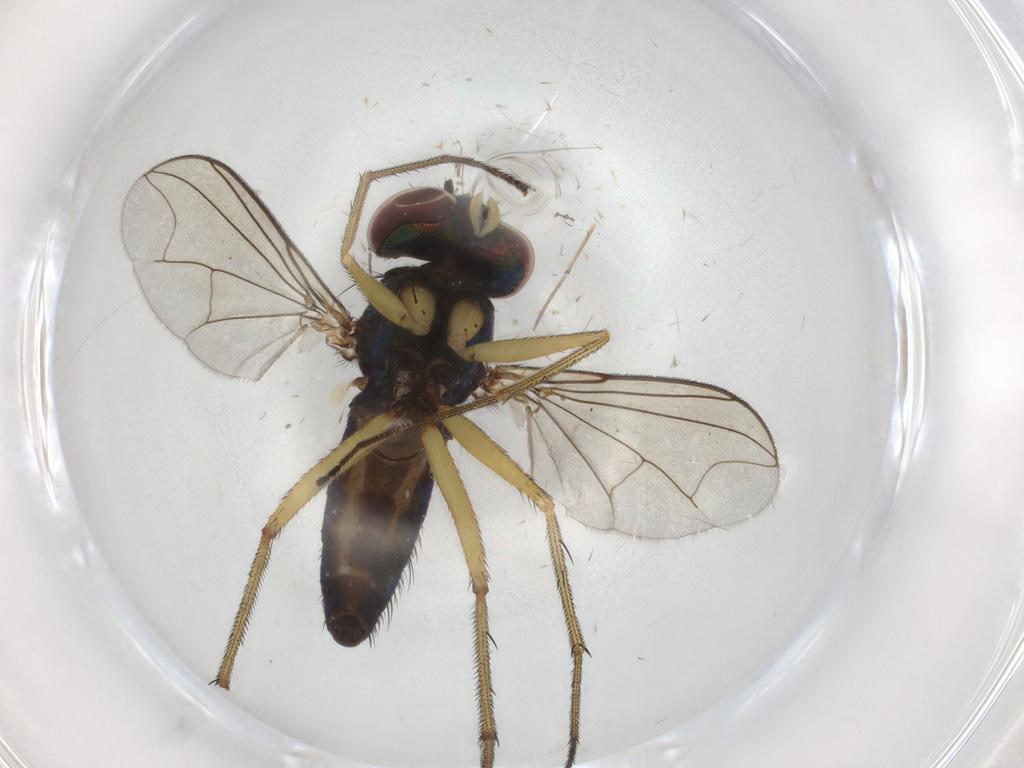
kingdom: Animalia
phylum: Arthropoda
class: Insecta
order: Diptera
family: Dolichopodidae
